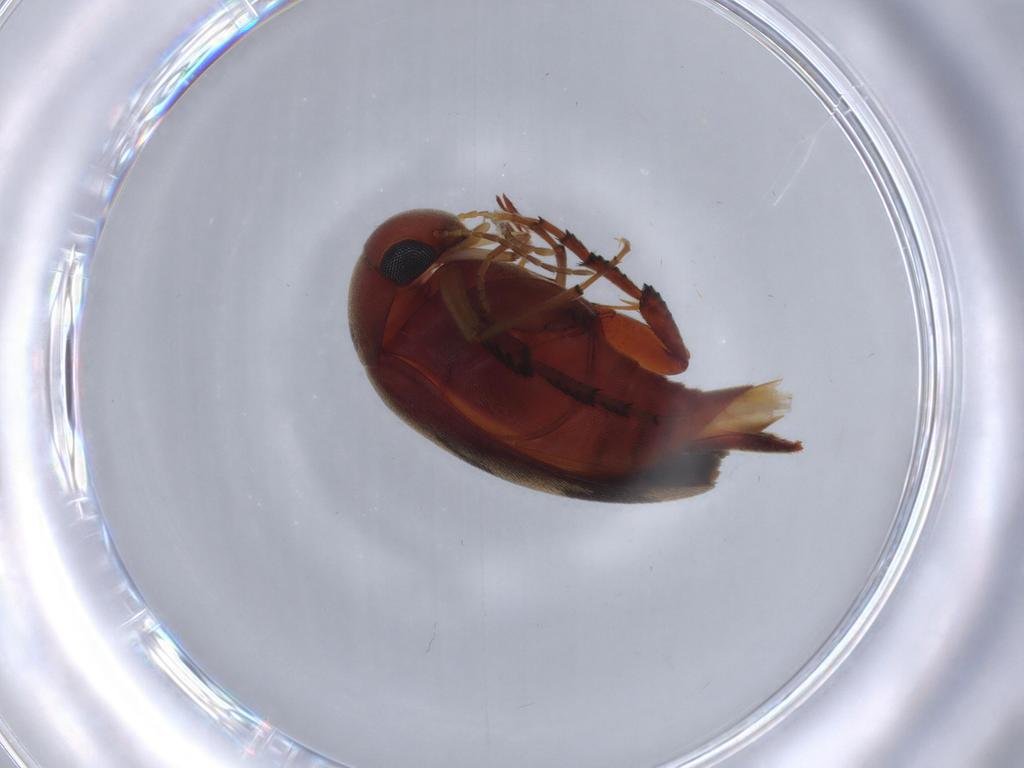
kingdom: Animalia
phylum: Arthropoda
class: Insecta
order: Coleoptera
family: Mordellidae
